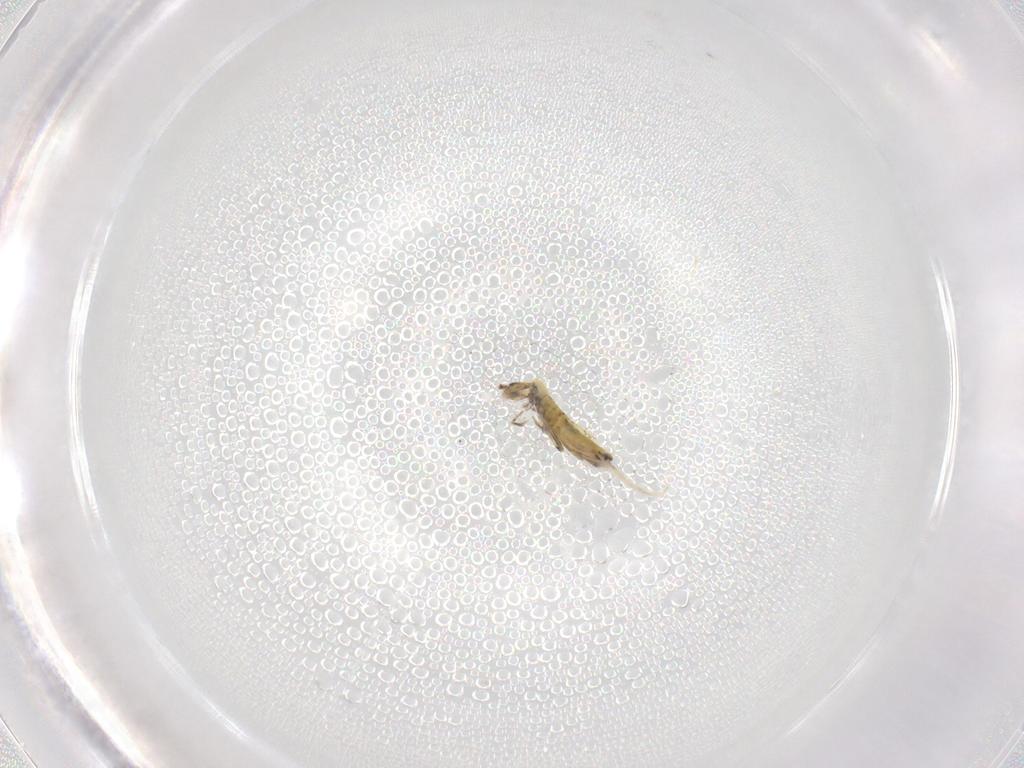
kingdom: Animalia
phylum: Arthropoda
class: Collembola
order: Entomobryomorpha
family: Entomobryidae
